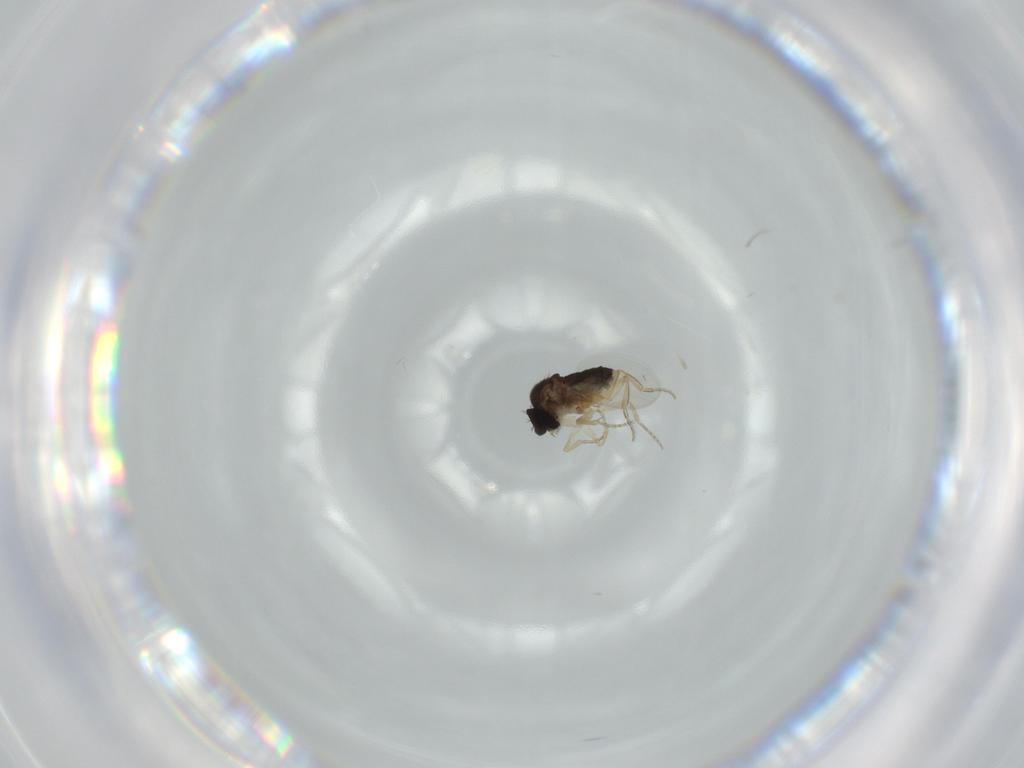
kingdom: Animalia
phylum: Arthropoda
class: Insecta
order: Diptera
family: Phoridae
